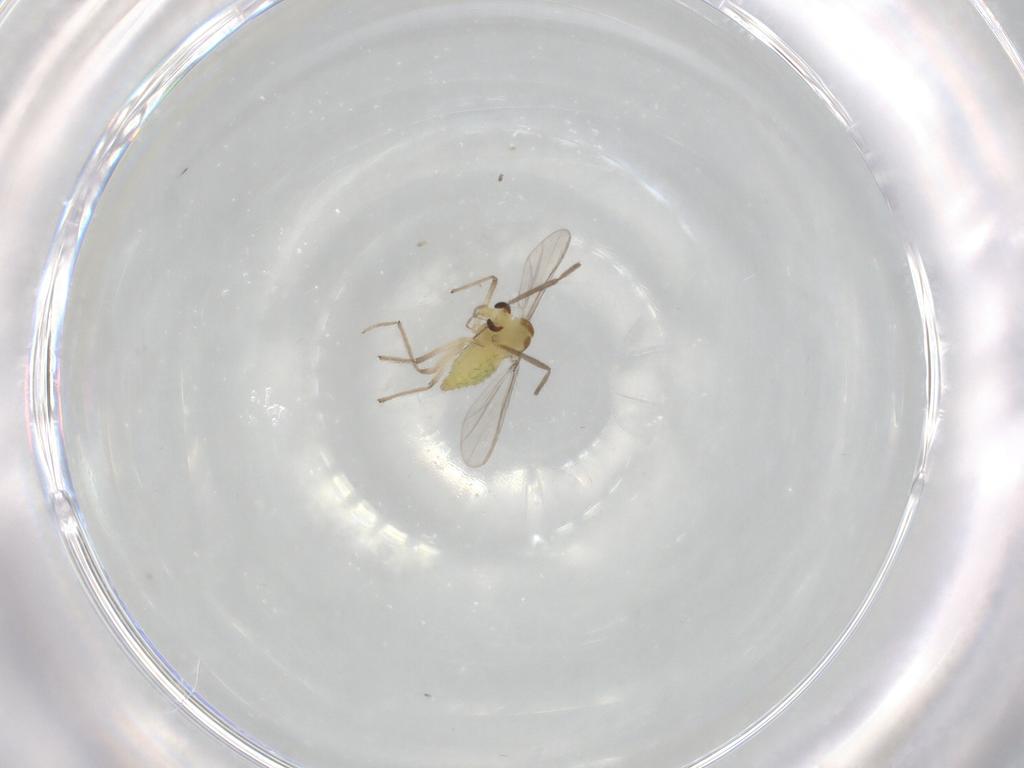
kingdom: Animalia
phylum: Arthropoda
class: Insecta
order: Diptera
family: Chironomidae
